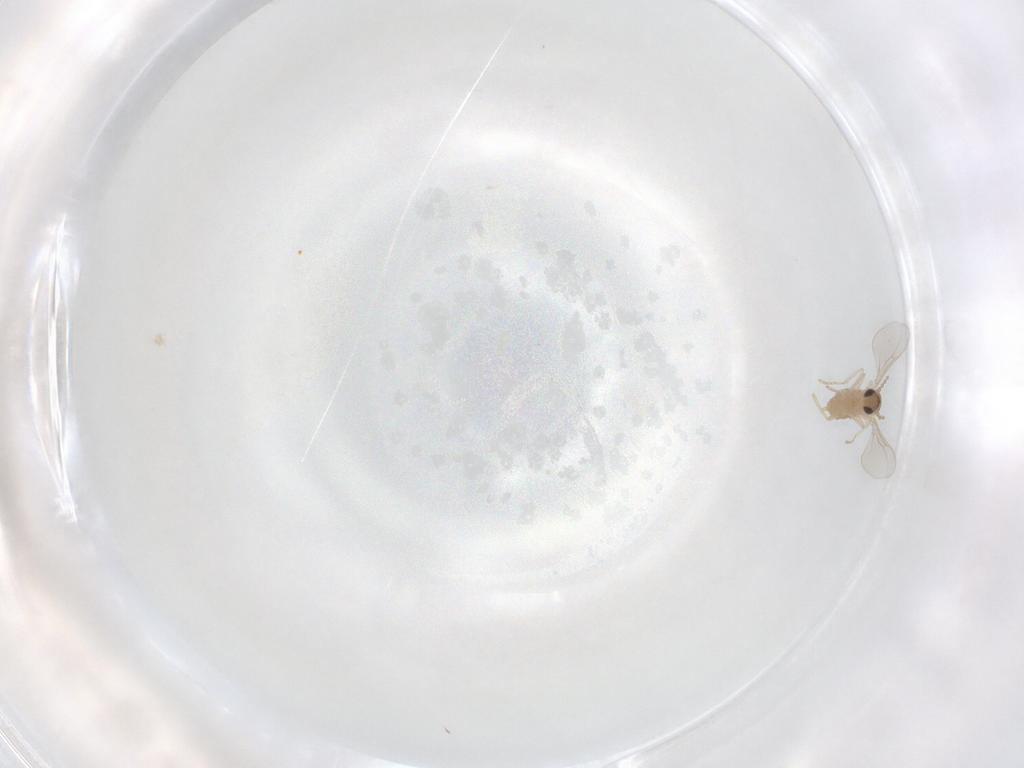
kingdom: Animalia
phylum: Arthropoda
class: Insecta
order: Diptera
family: Cecidomyiidae
